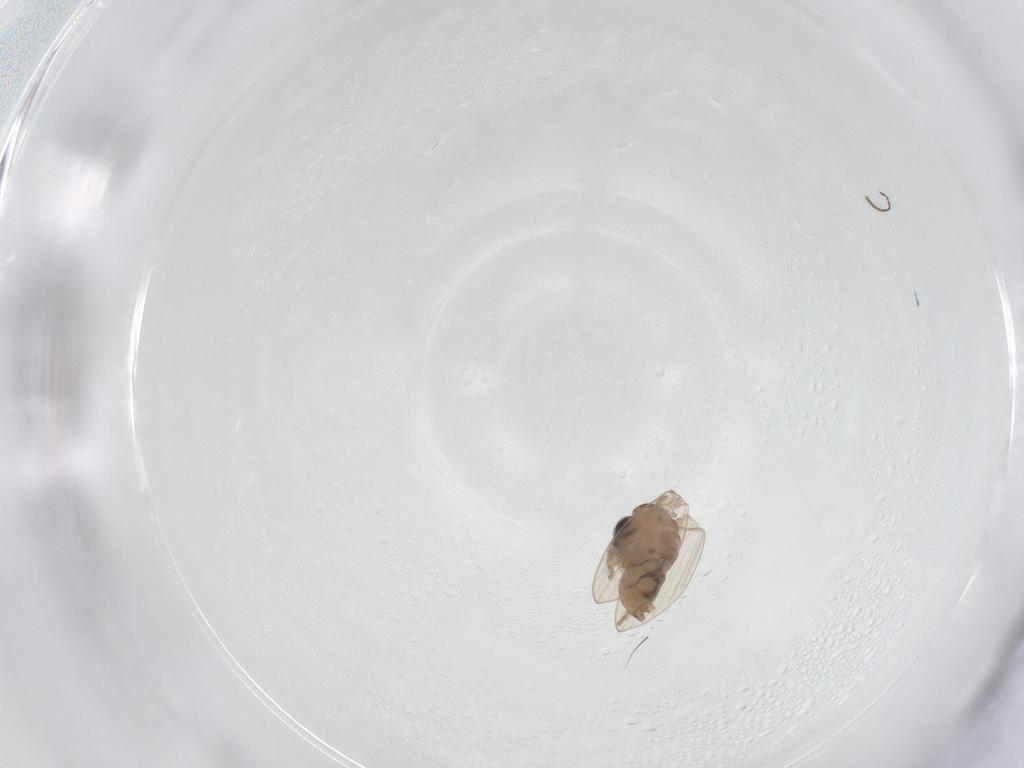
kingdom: Animalia
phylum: Arthropoda
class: Insecta
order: Diptera
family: Psychodidae
